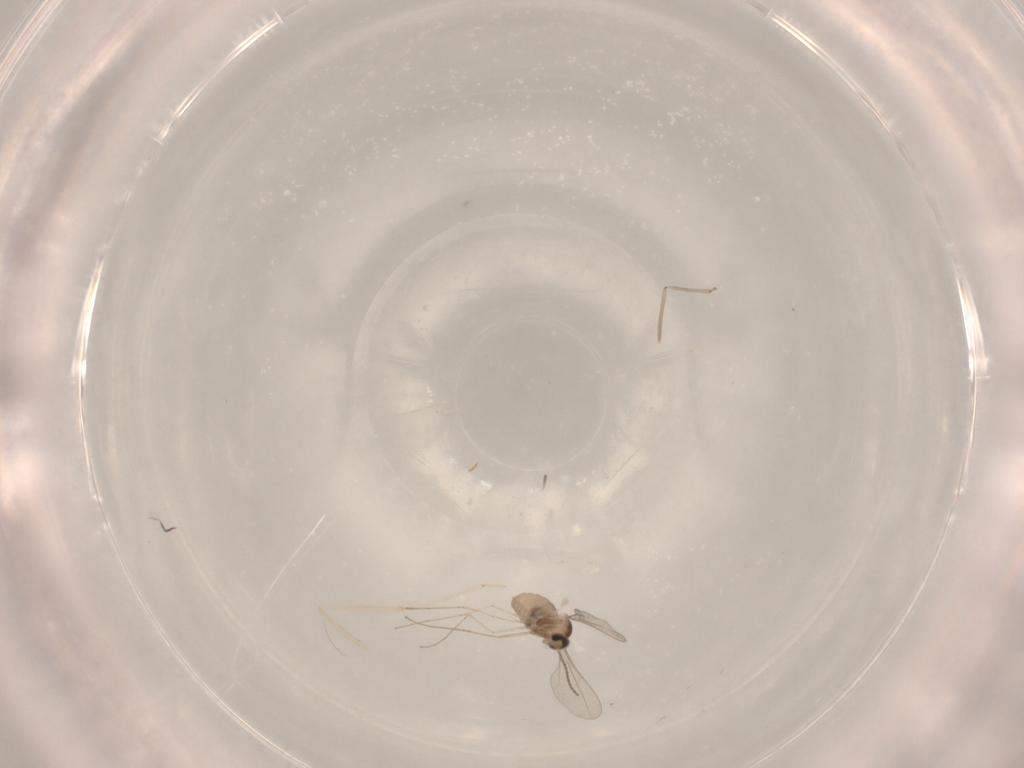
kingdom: Animalia
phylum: Arthropoda
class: Insecta
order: Diptera
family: Cecidomyiidae
